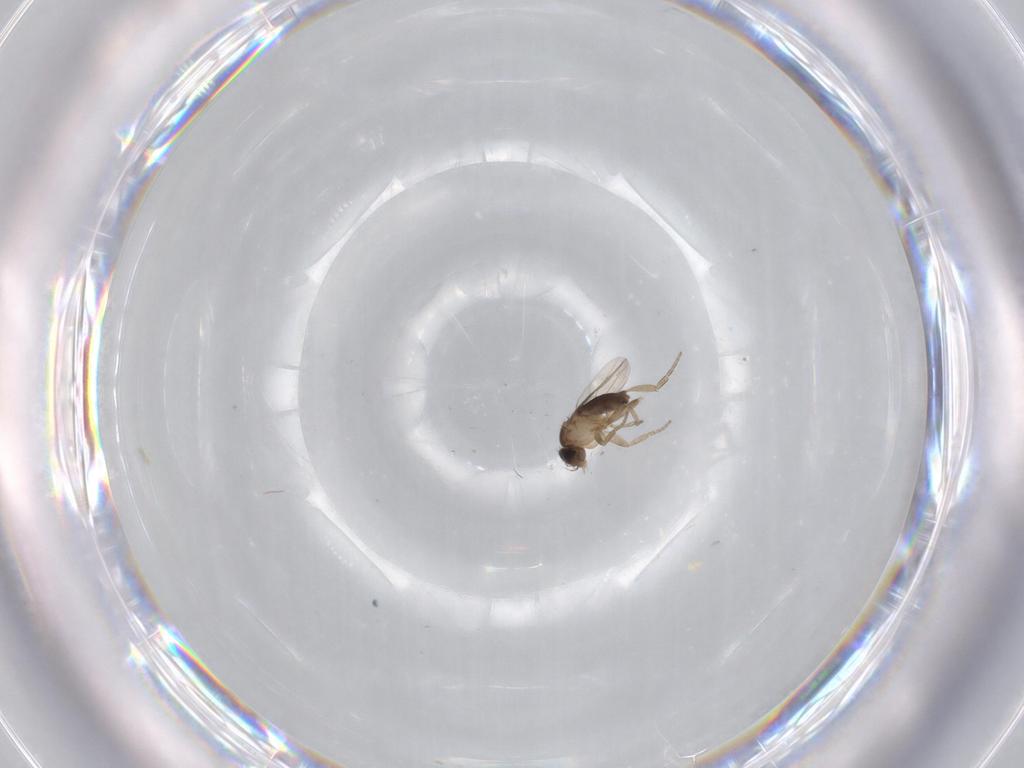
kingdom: Animalia
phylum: Arthropoda
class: Insecta
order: Diptera
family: Phoridae
